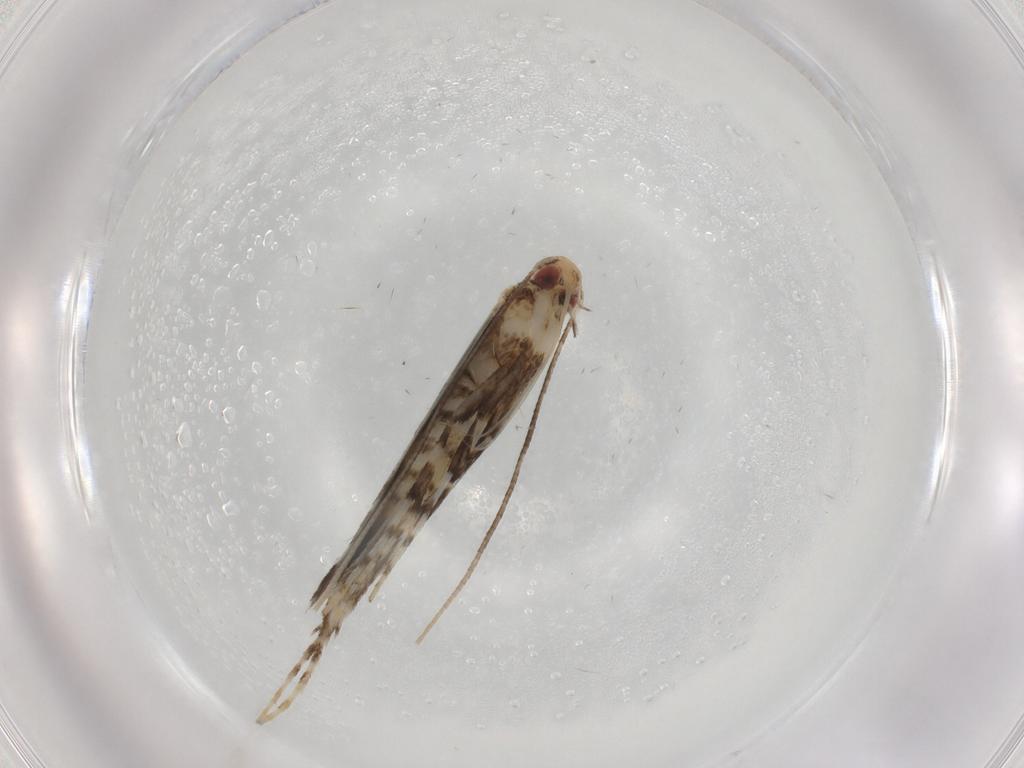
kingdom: Animalia
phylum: Arthropoda
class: Insecta
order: Lepidoptera
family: Gracillariidae
